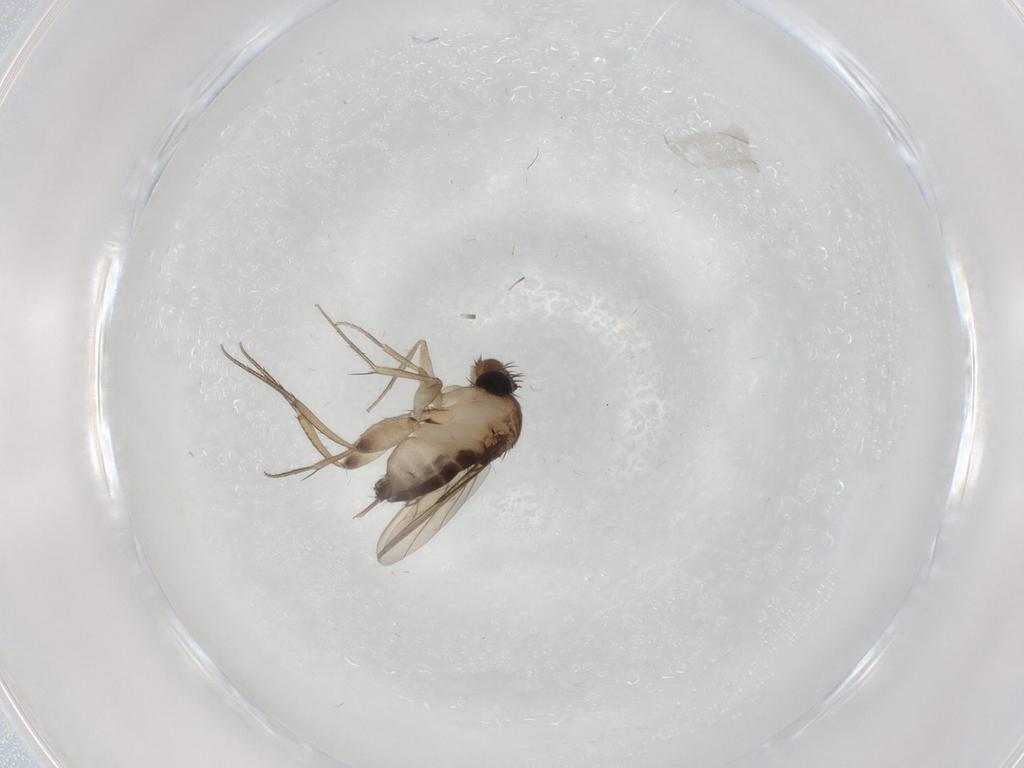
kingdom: Animalia
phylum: Arthropoda
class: Insecta
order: Diptera
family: Phoridae
